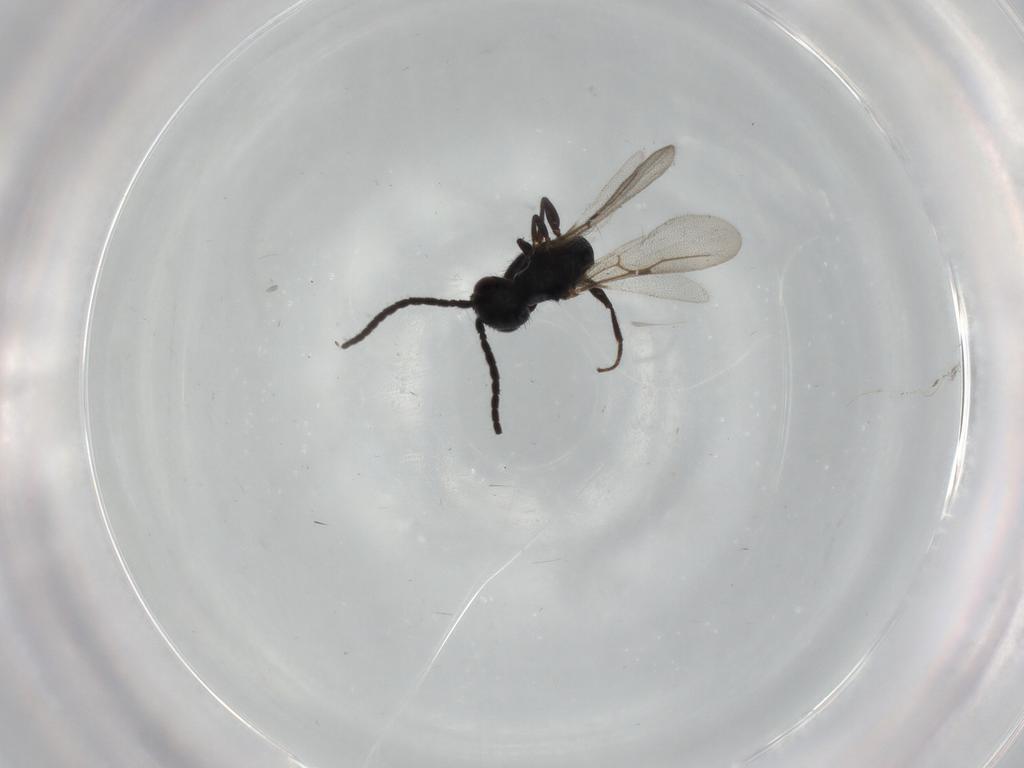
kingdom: Animalia
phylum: Arthropoda
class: Insecta
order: Hymenoptera
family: Bethylidae
